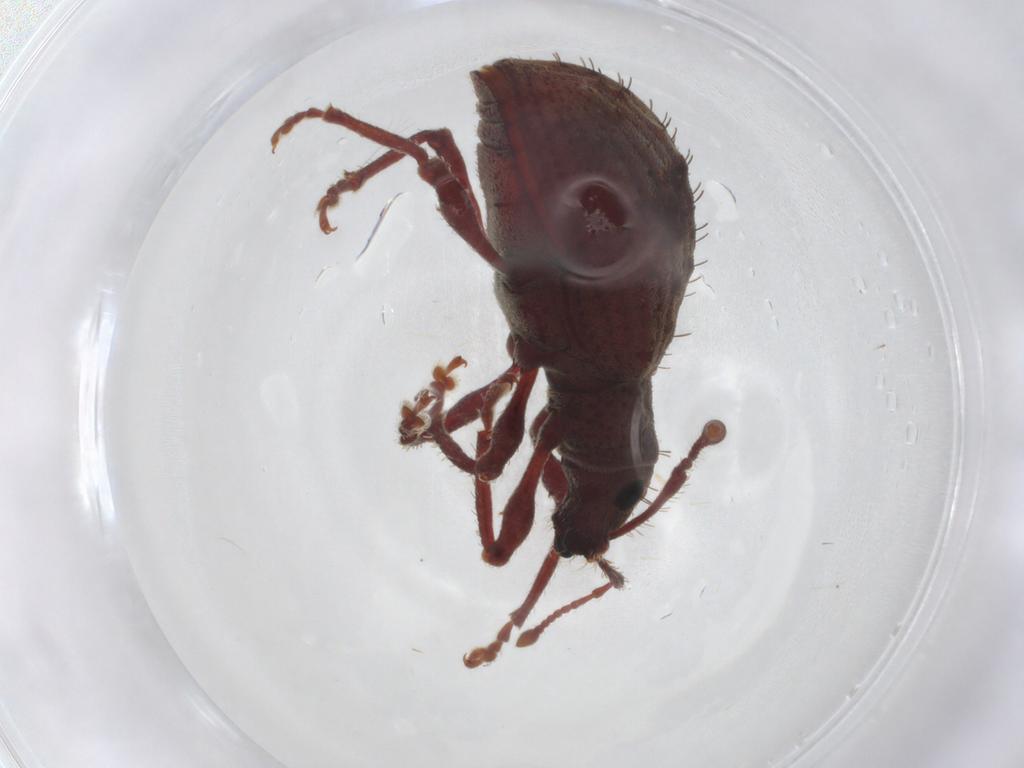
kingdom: Animalia
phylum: Arthropoda
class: Insecta
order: Coleoptera
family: Curculionidae
